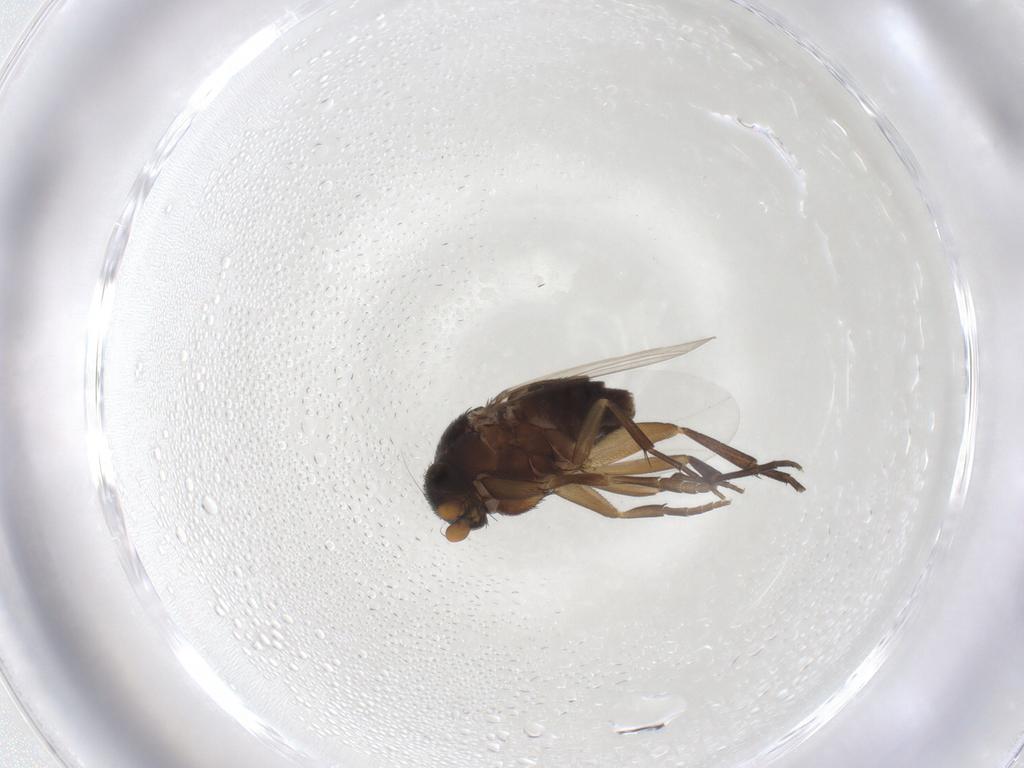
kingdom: Animalia
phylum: Arthropoda
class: Insecta
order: Diptera
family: Phoridae
